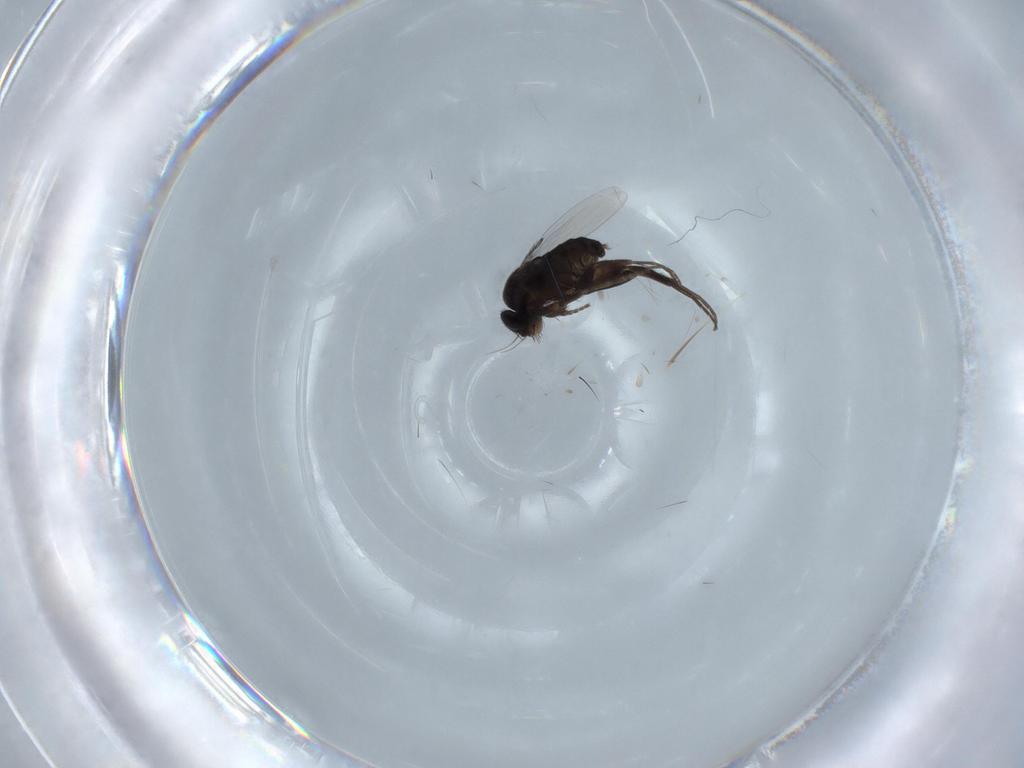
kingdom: Animalia
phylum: Arthropoda
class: Insecta
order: Diptera
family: Phoridae
